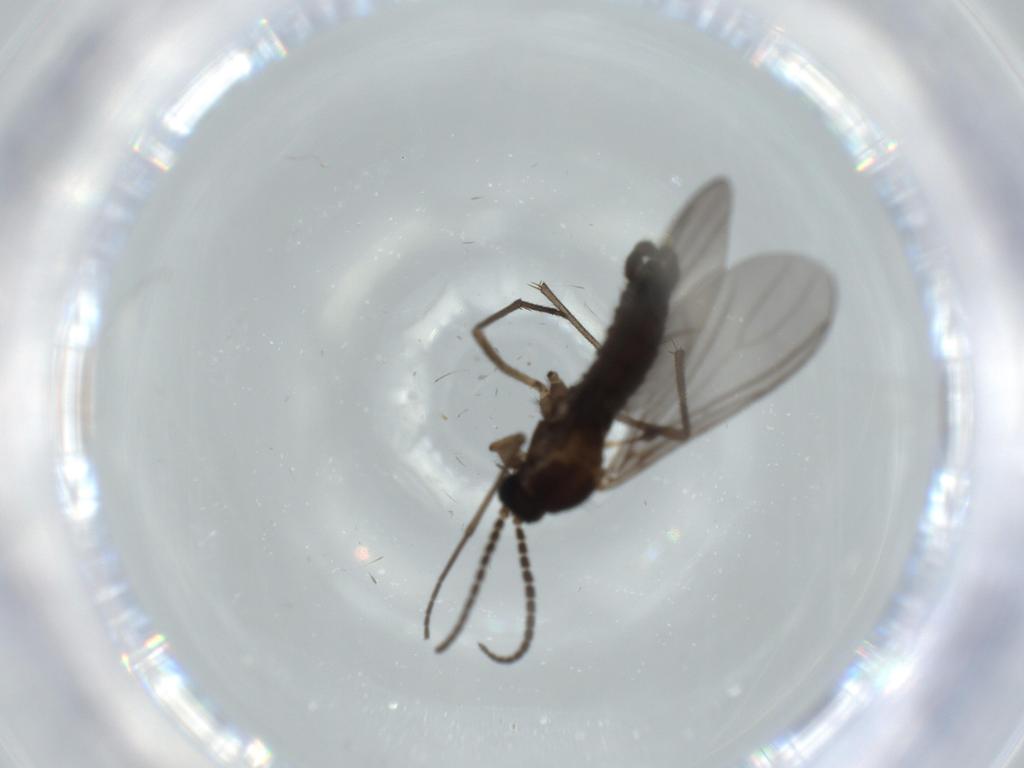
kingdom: Animalia
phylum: Arthropoda
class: Insecta
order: Diptera
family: Sciaridae
